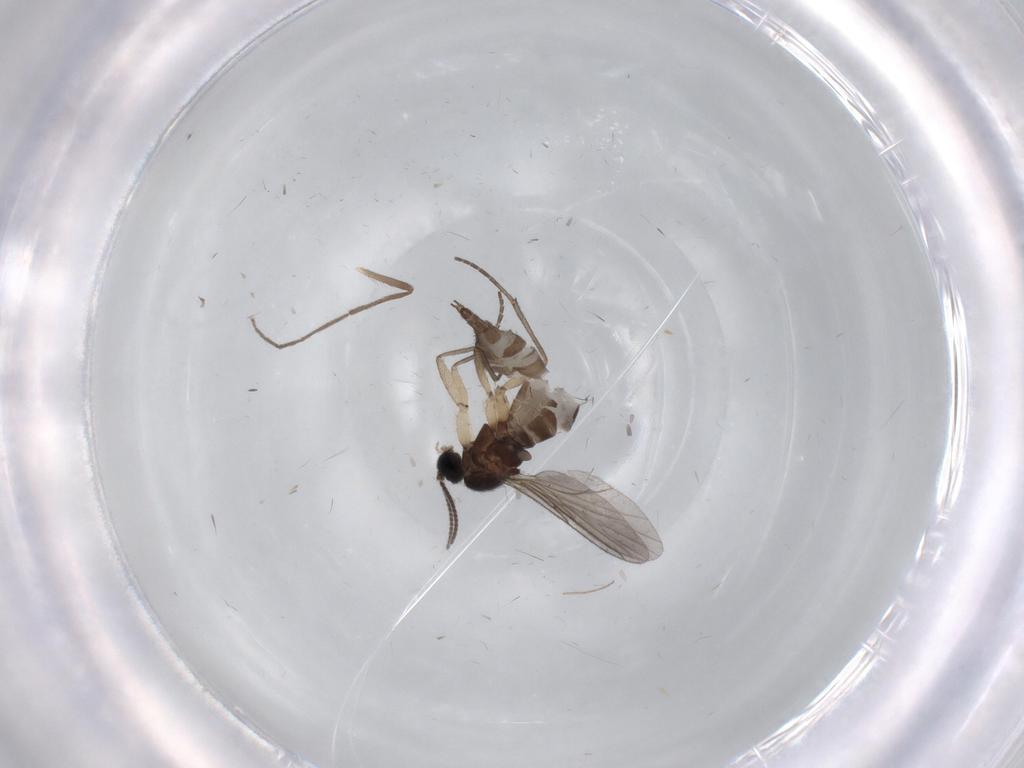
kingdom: Animalia
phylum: Arthropoda
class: Insecta
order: Diptera
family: Sciaridae
